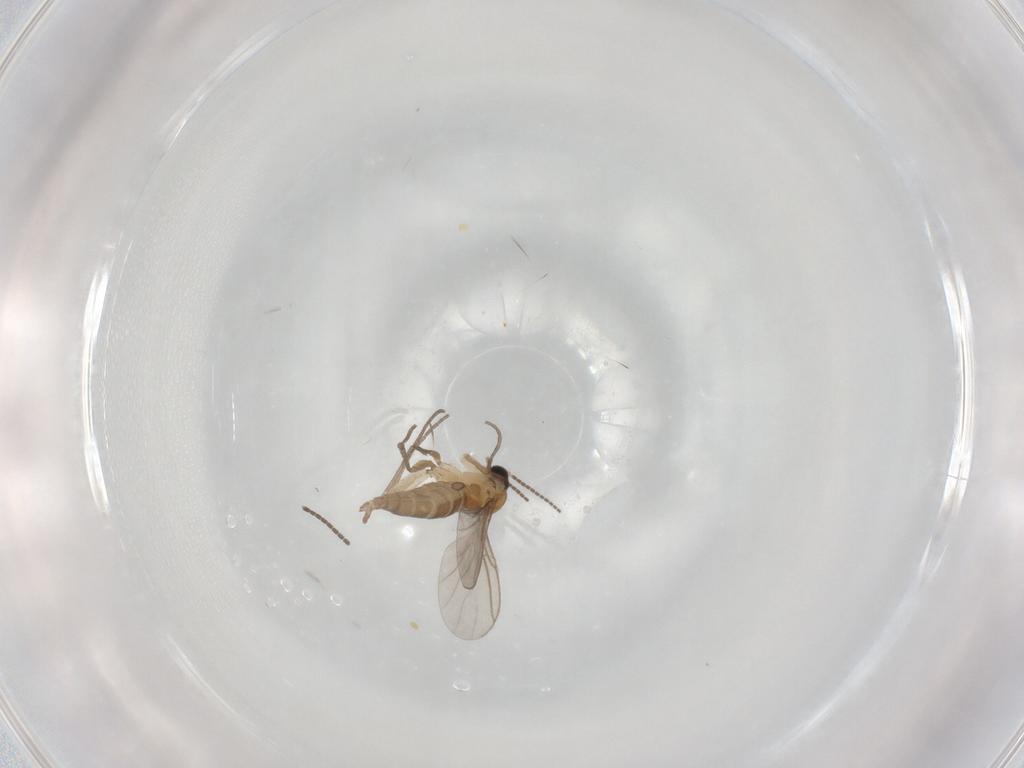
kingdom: Animalia
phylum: Arthropoda
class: Insecta
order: Diptera
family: Sciaridae
